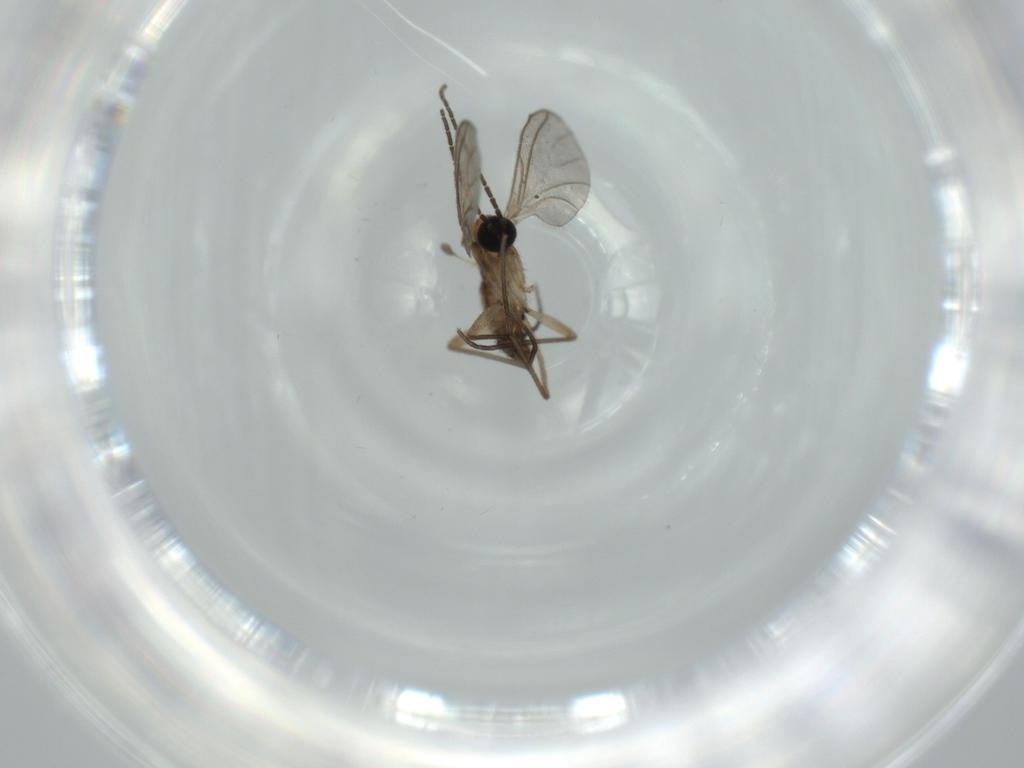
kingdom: Animalia
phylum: Arthropoda
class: Insecta
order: Diptera
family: Sciaridae
